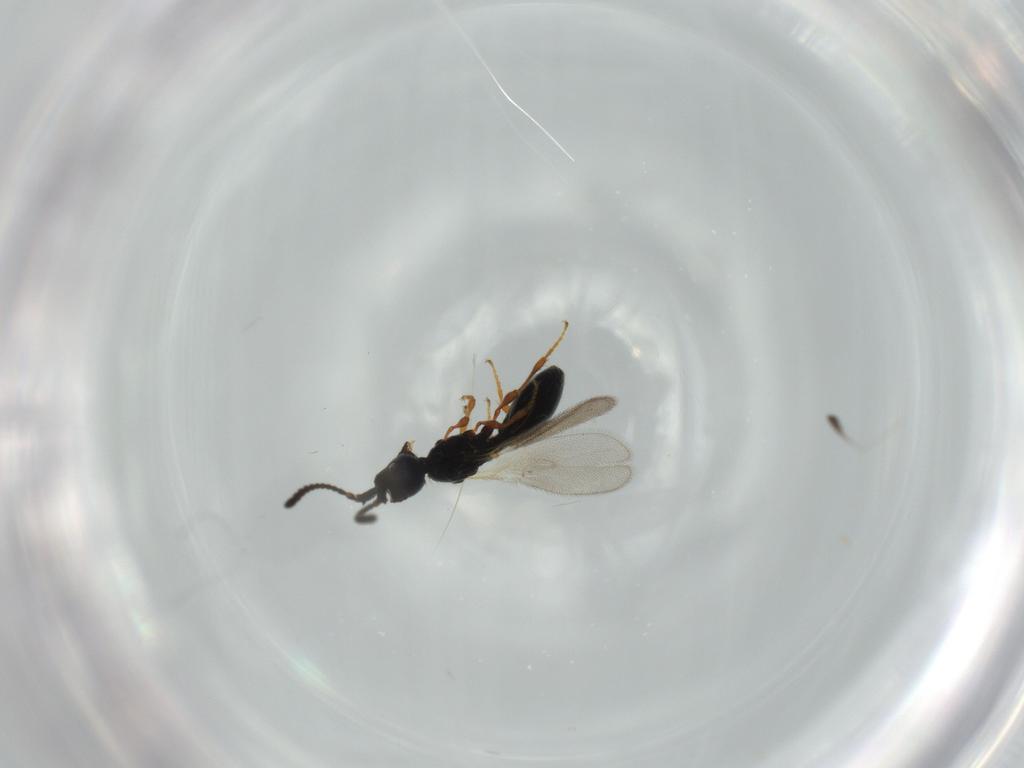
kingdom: Animalia
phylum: Arthropoda
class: Insecta
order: Hymenoptera
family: Diapriidae
